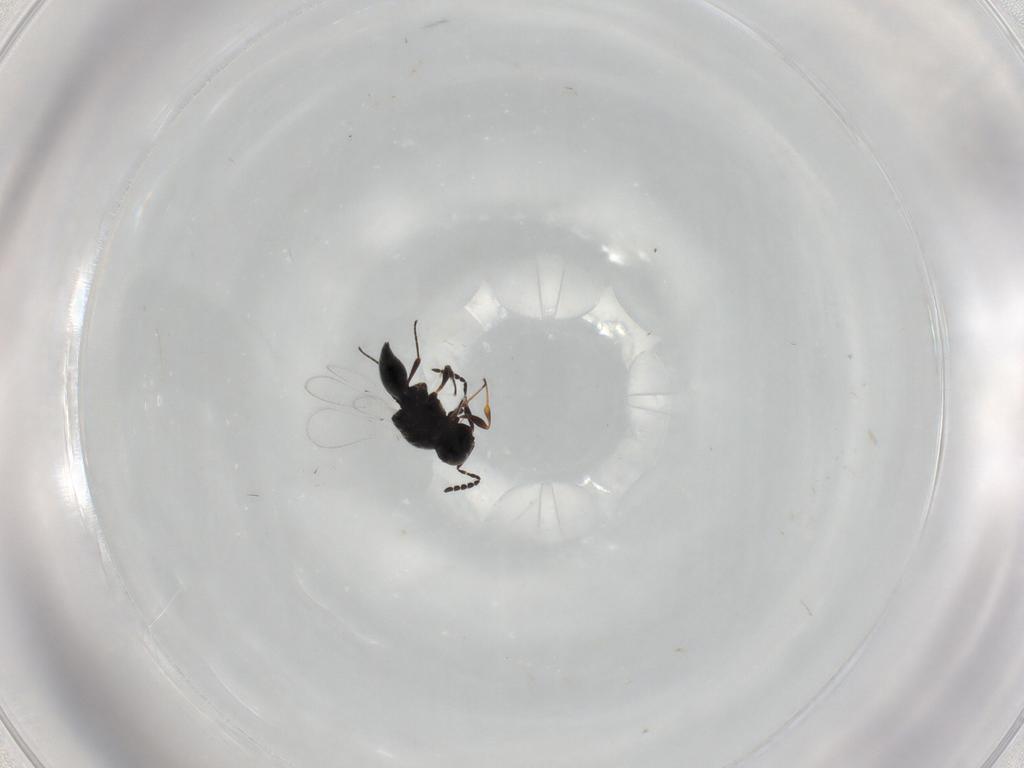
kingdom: Animalia
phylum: Arthropoda
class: Insecta
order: Hymenoptera
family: Platygastridae
